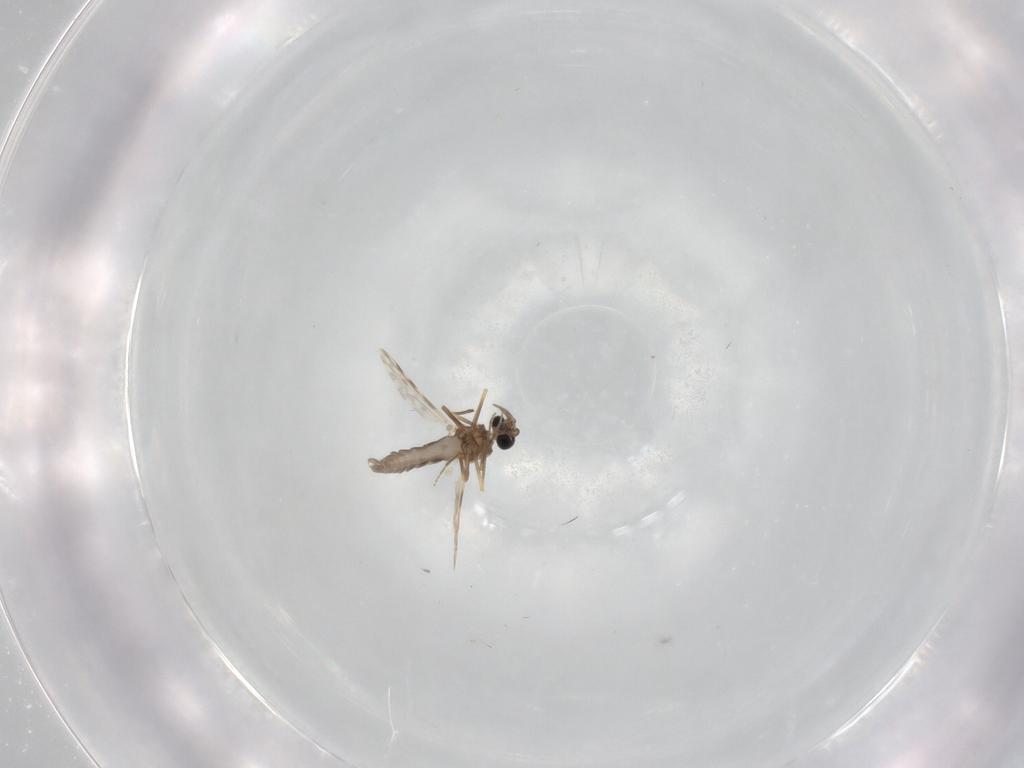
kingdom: Animalia
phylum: Arthropoda
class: Insecta
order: Diptera
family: Ceratopogonidae
